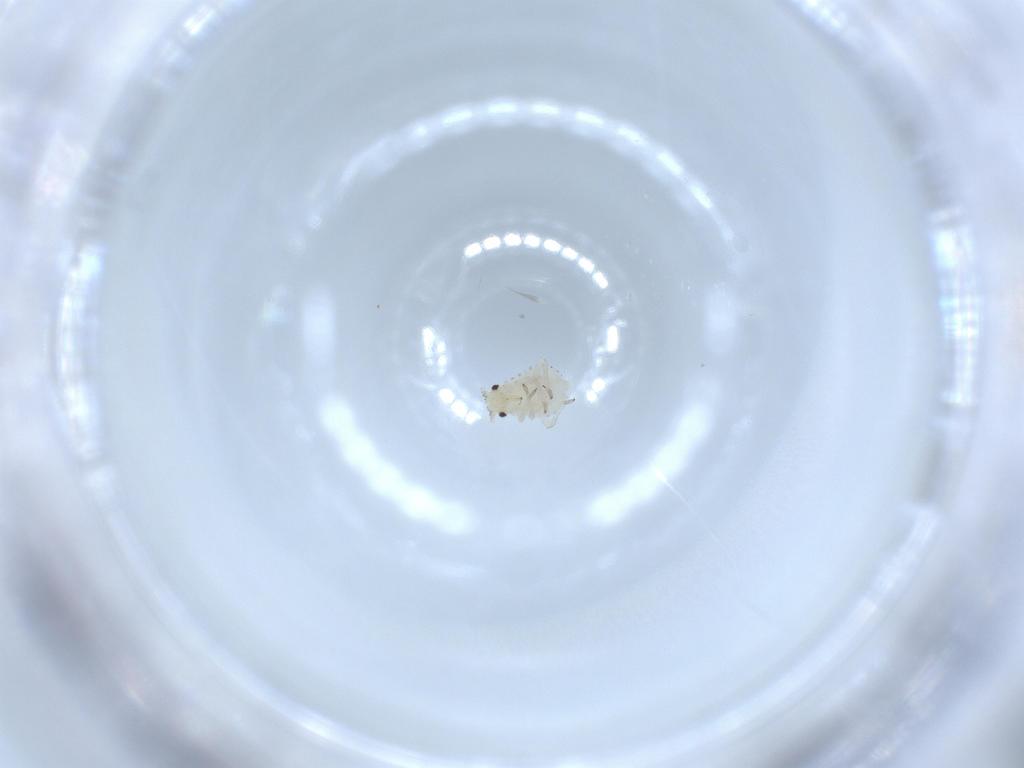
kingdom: Animalia
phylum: Arthropoda
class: Insecta
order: Hemiptera
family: Aphididae
